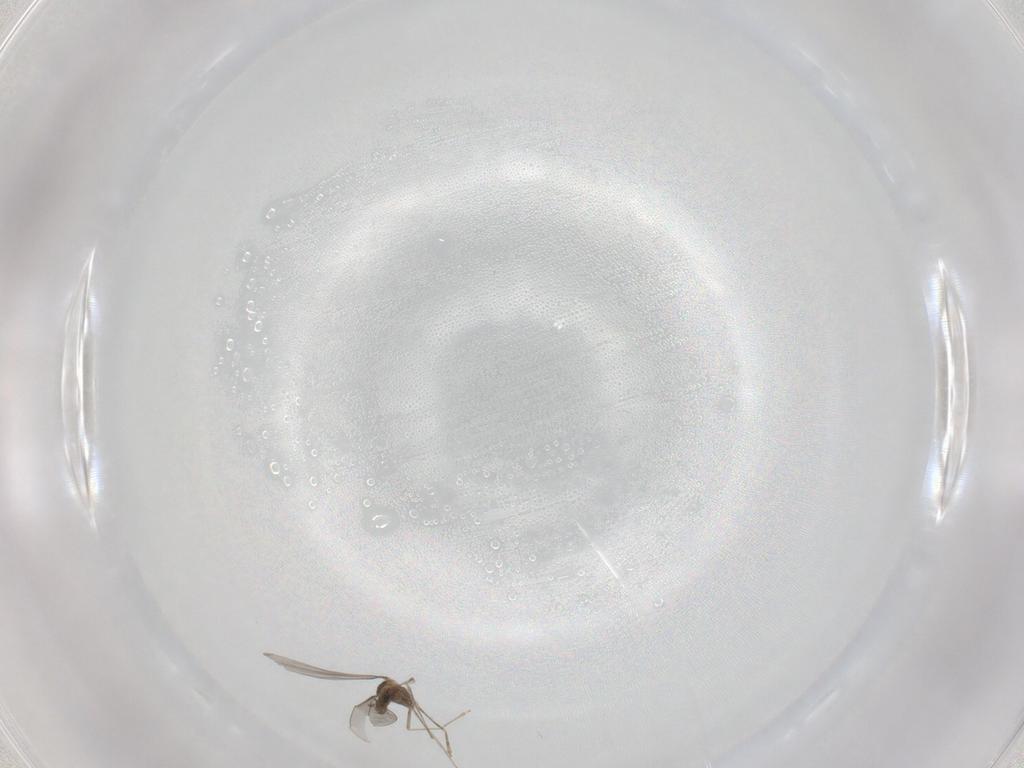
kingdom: Animalia
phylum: Arthropoda
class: Insecta
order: Diptera
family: Cecidomyiidae
